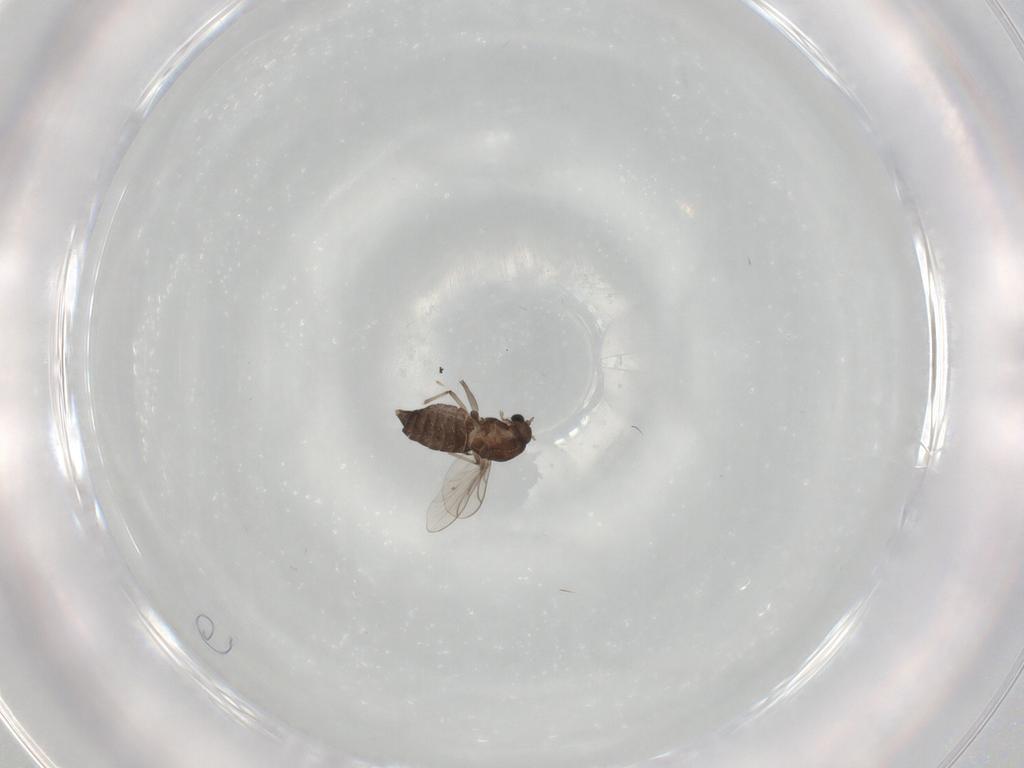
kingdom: Animalia
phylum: Arthropoda
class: Insecta
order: Diptera
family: Chironomidae
